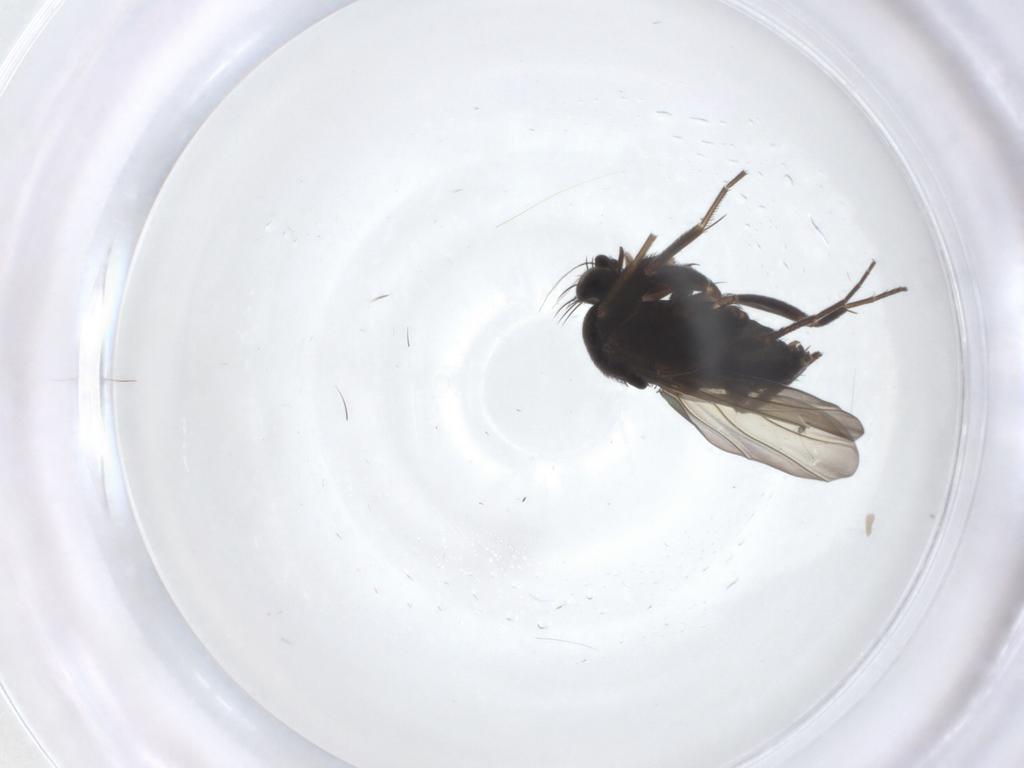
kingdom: Animalia
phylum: Arthropoda
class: Insecta
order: Diptera
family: Phoridae
